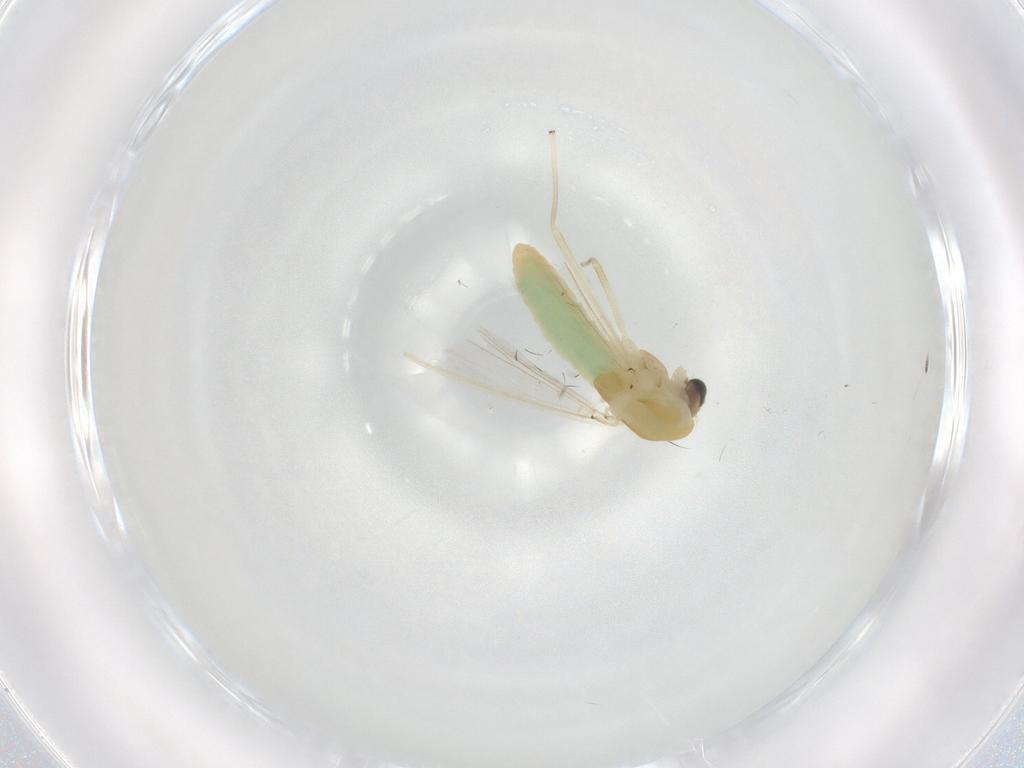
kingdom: Animalia
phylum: Arthropoda
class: Insecta
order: Diptera
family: Chironomidae
